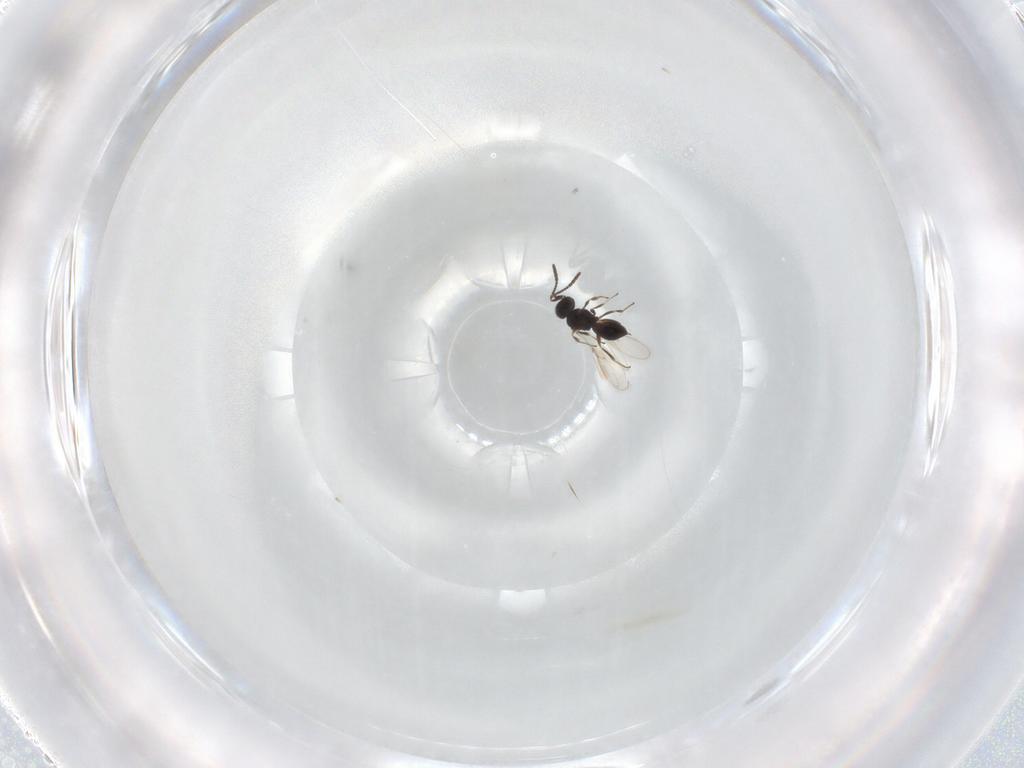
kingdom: Animalia
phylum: Arthropoda
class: Insecta
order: Hymenoptera
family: Scelionidae
